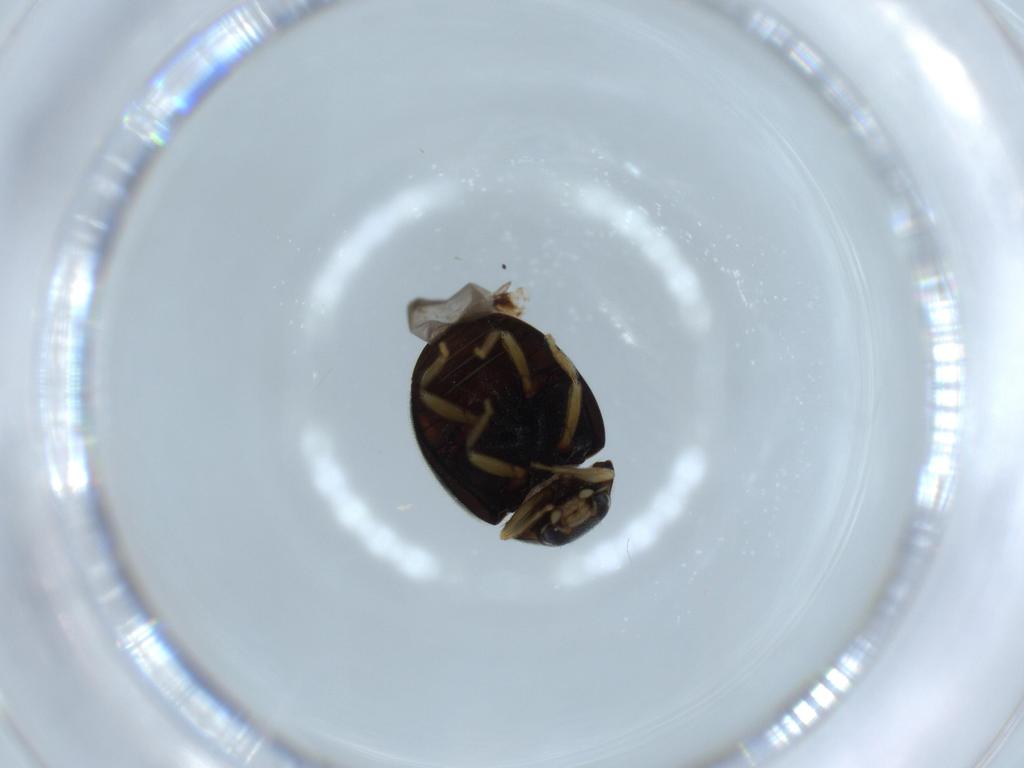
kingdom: Animalia
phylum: Arthropoda
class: Insecta
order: Coleoptera
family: Coccinellidae
